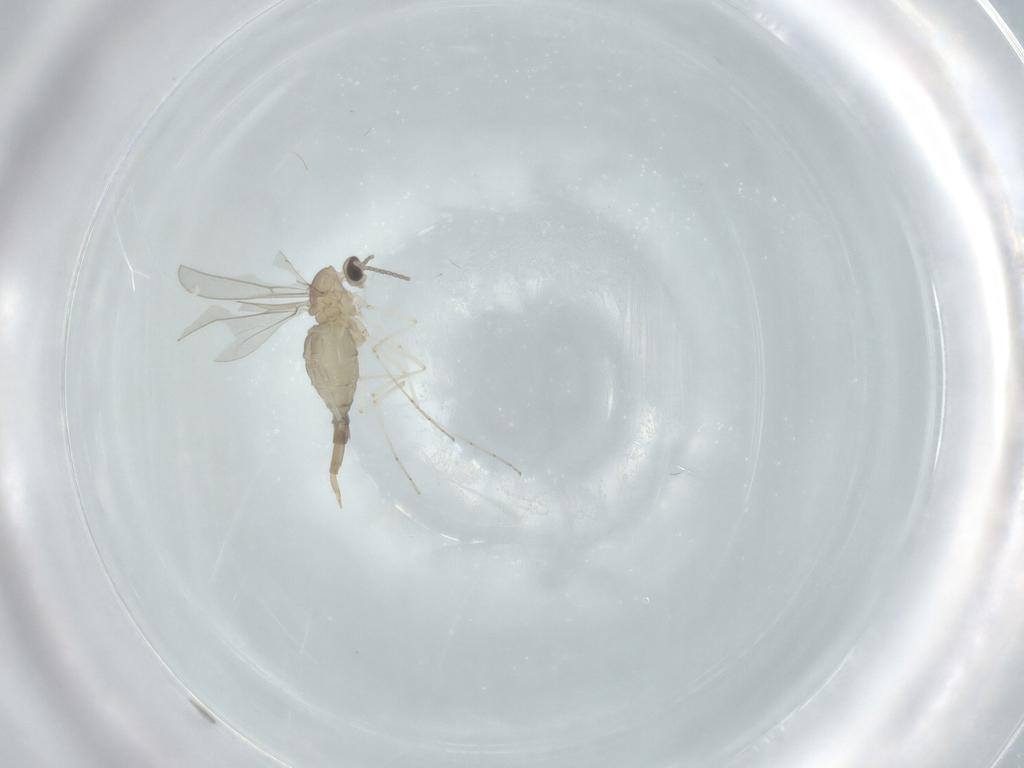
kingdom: Animalia
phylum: Arthropoda
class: Insecta
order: Diptera
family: Cecidomyiidae
